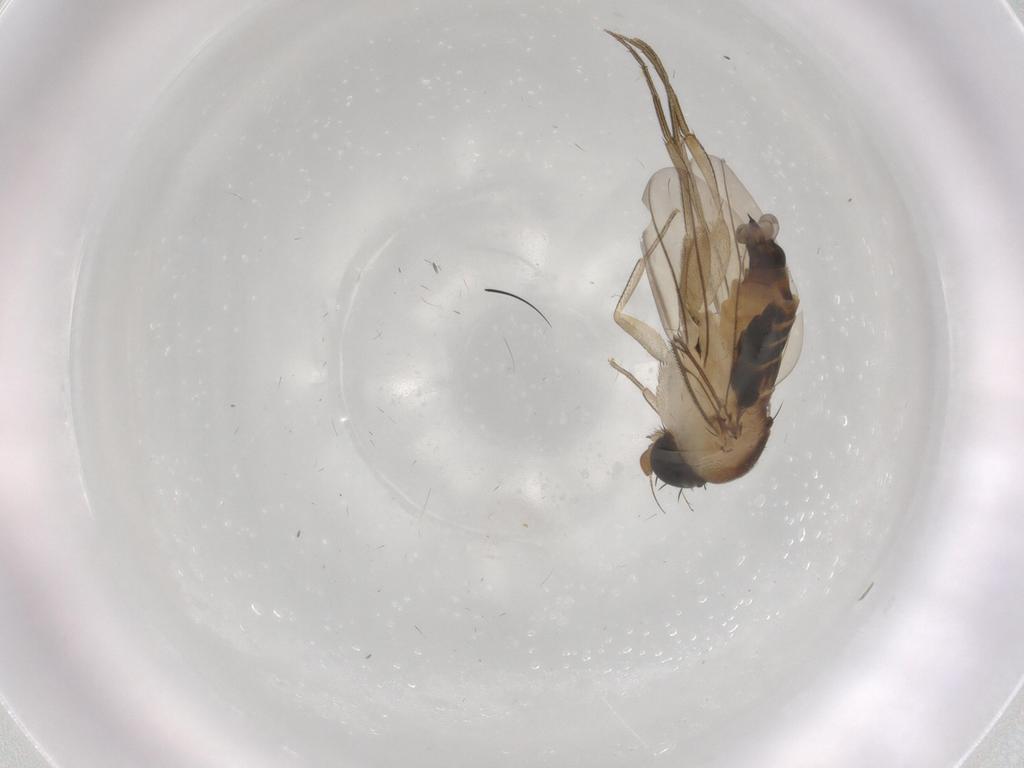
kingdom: Animalia
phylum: Arthropoda
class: Insecta
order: Diptera
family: Phoridae
